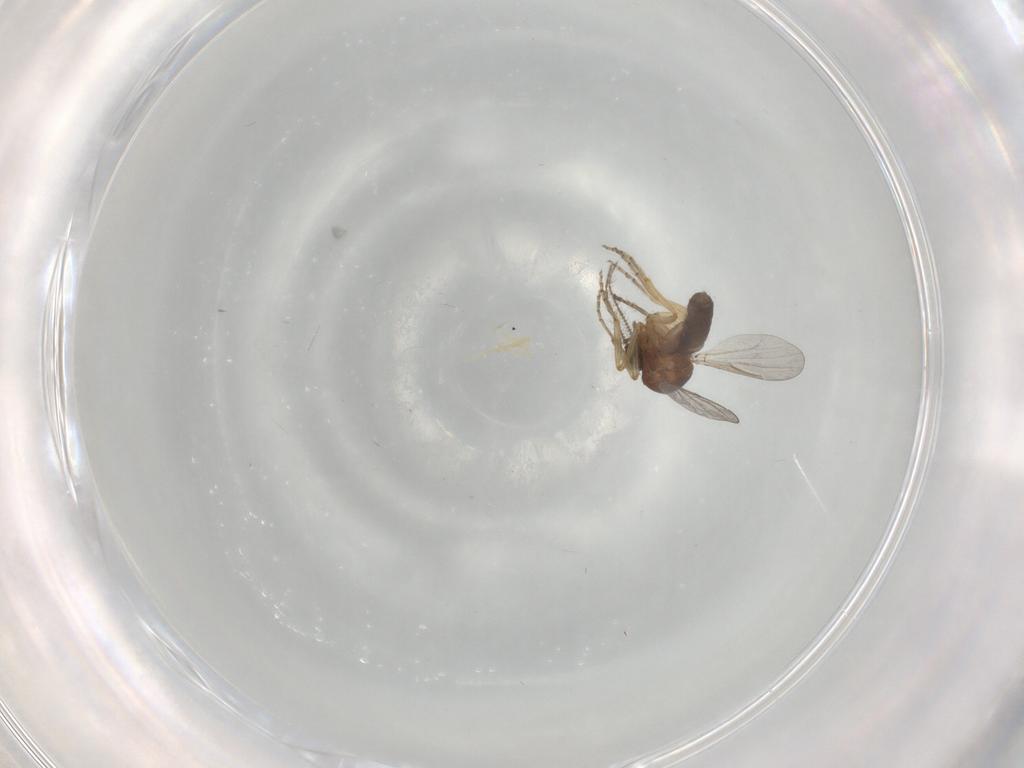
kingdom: Animalia
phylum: Arthropoda
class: Insecta
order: Diptera
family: Ceratopogonidae
